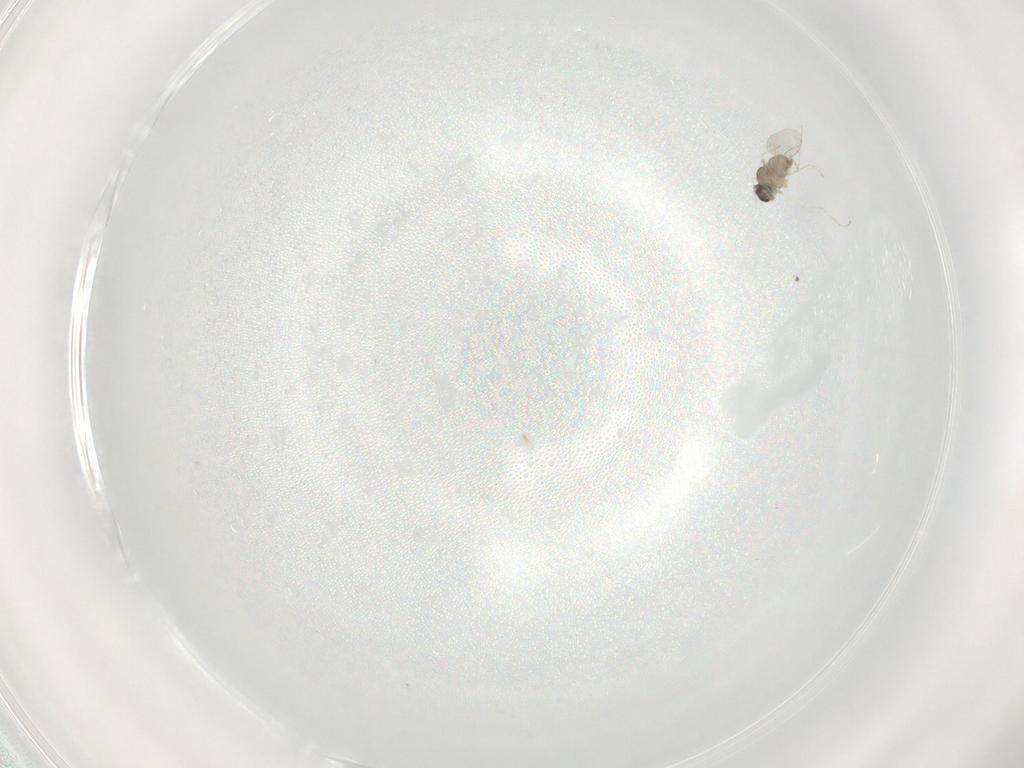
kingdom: Animalia
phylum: Arthropoda
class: Insecta
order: Diptera
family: Cecidomyiidae
